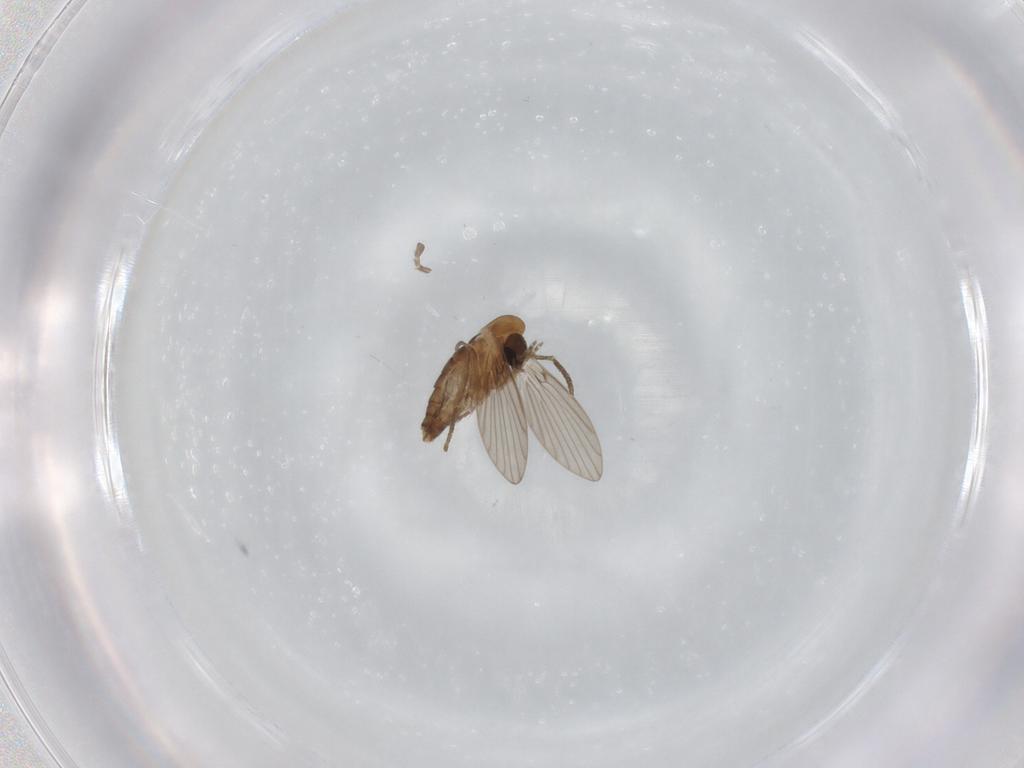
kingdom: Animalia
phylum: Arthropoda
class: Insecta
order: Diptera
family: Psychodidae
